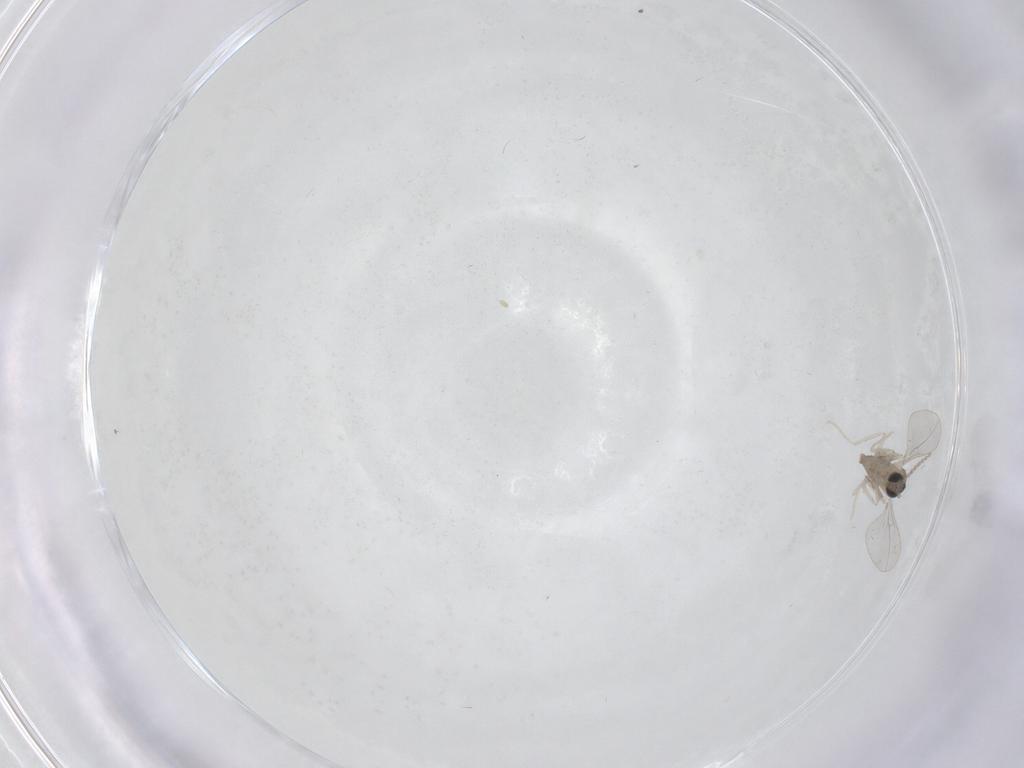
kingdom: Animalia
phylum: Arthropoda
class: Insecta
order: Diptera
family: Cecidomyiidae
